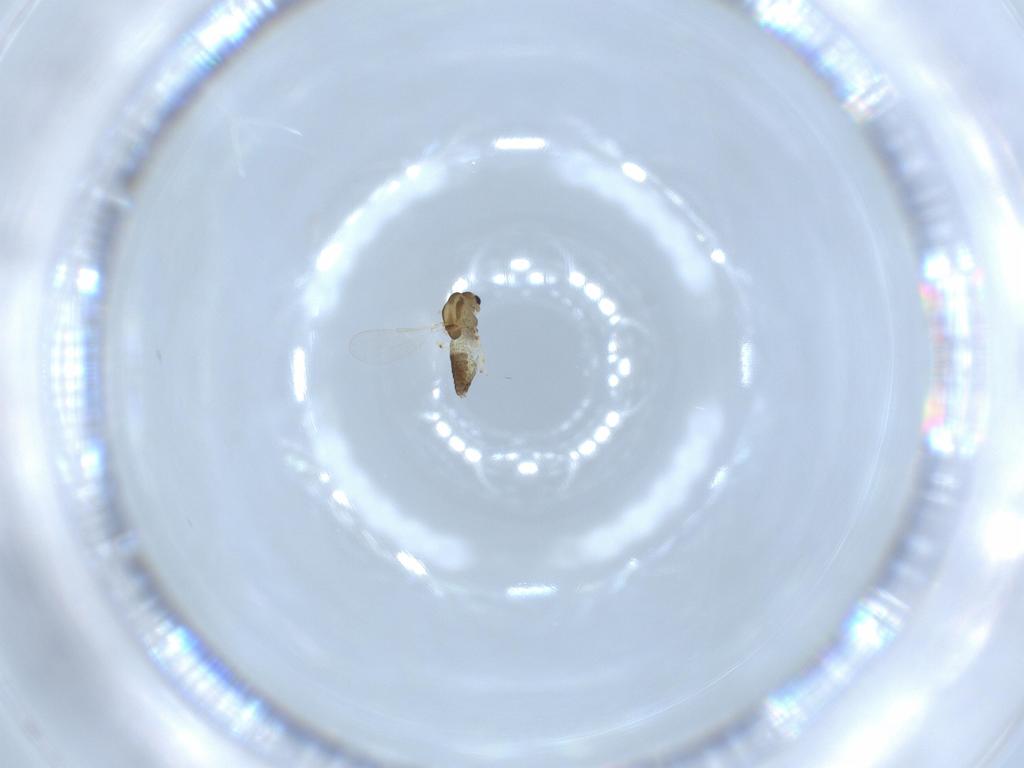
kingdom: Animalia
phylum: Arthropoda
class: Insecta
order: Diptera
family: Chironomidae
